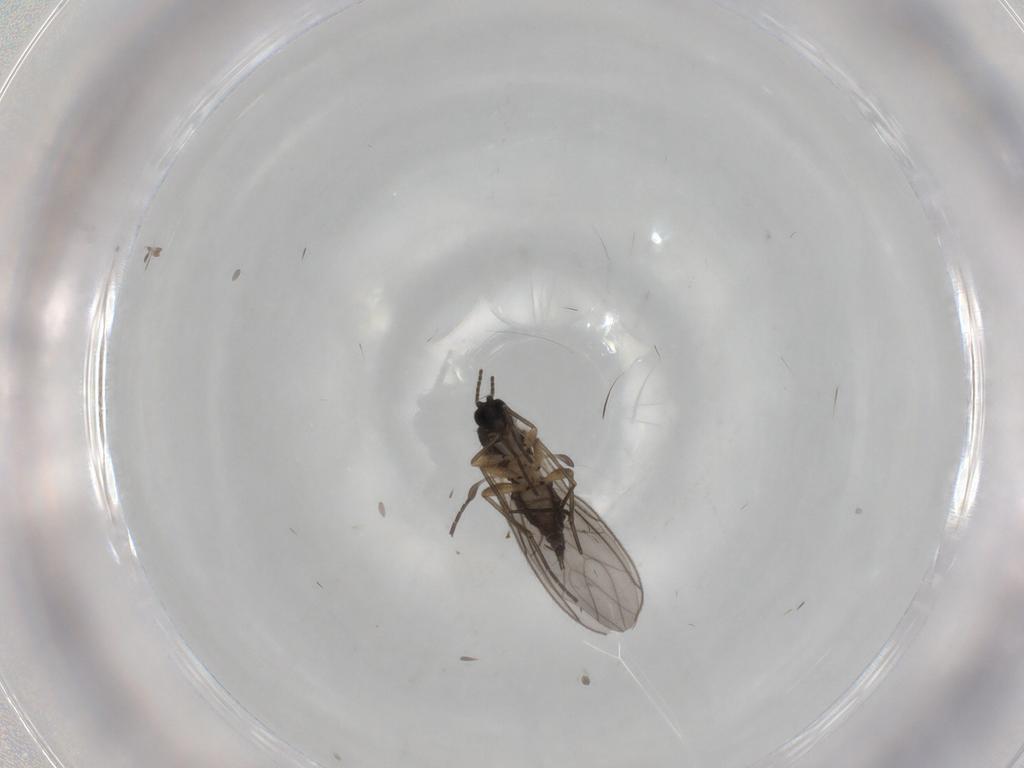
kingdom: Animalia
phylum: Arthropoda
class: Insecta
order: Diptera
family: Sciaridae
